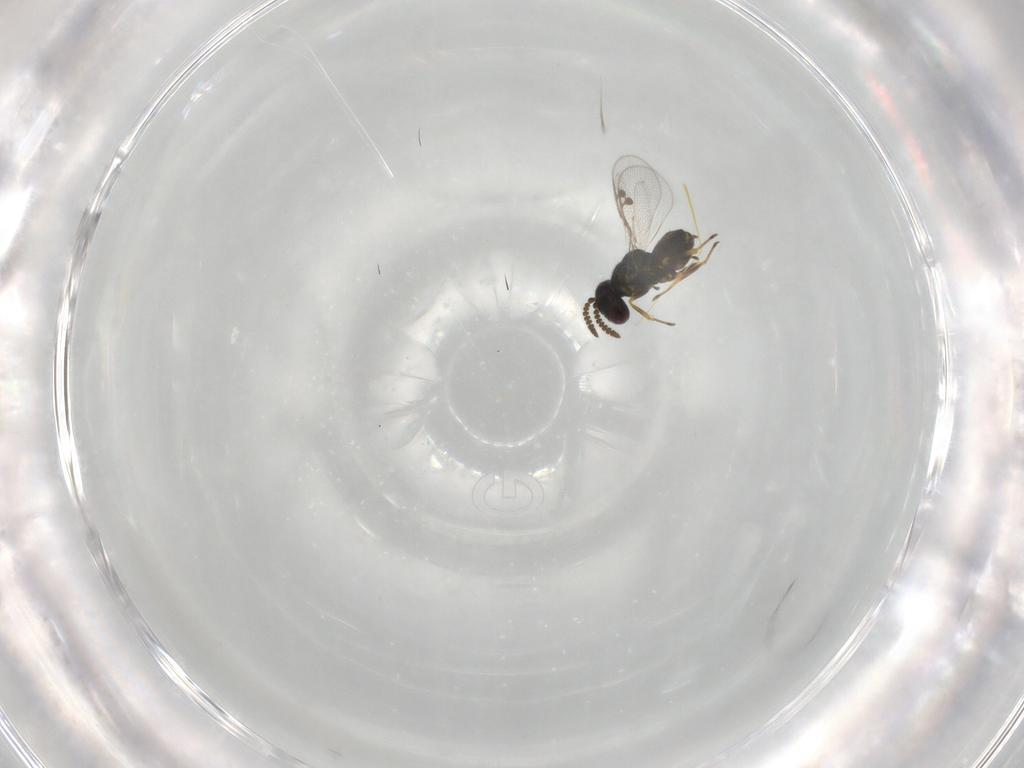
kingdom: Animalia
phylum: Arthropoda
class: Insecta
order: Hymenoptera
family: Pirenidae
